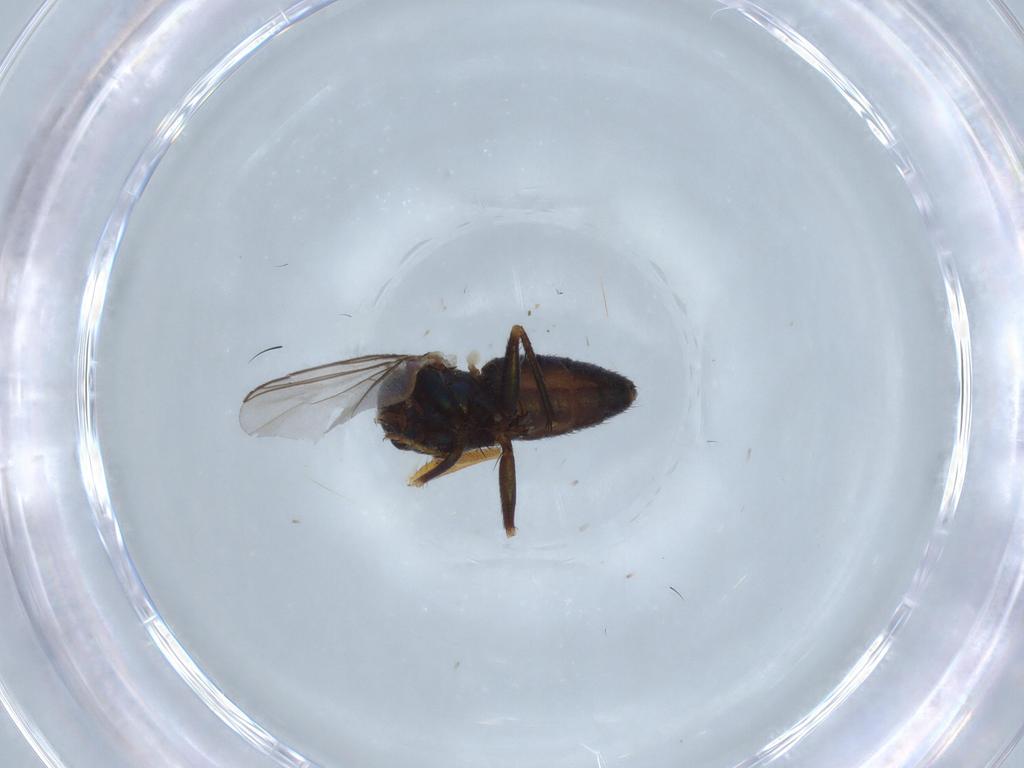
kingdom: Animalia
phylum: Arthropoda
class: Insecta
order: Diptera
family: Dolichopodidae
